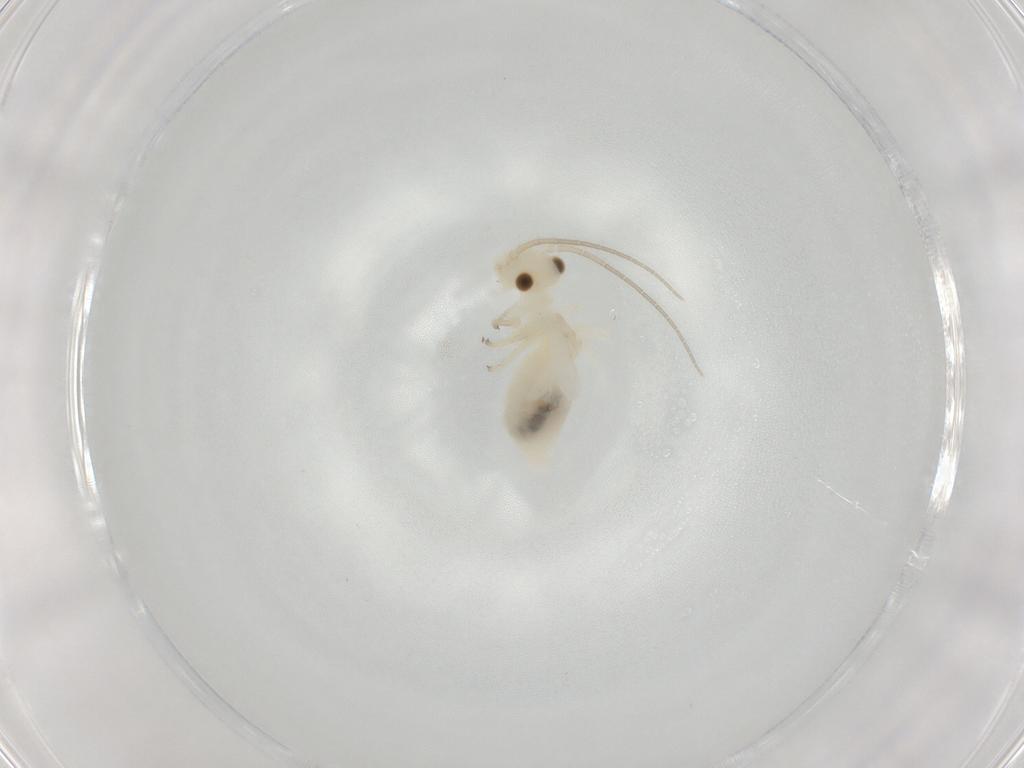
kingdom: Animalia
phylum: Arthropoda
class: Insecta
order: Psocodea
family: Caeciliusidae
